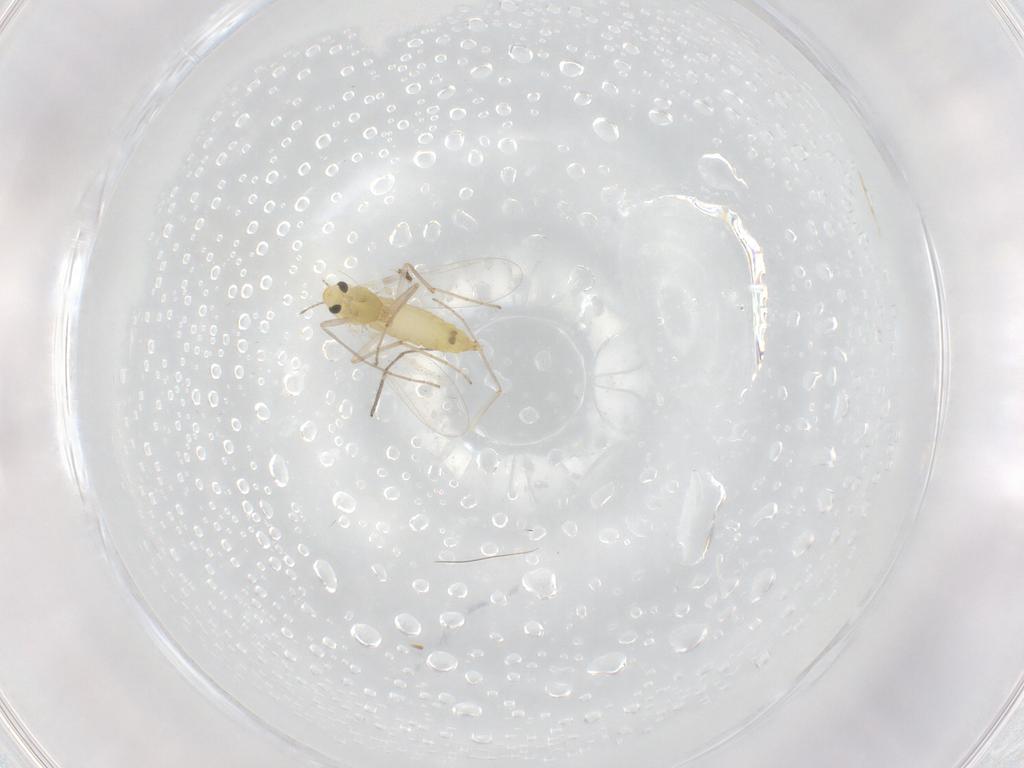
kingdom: Animalia
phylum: Arthropoda
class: Insecta
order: Diptera
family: Chironomidae
